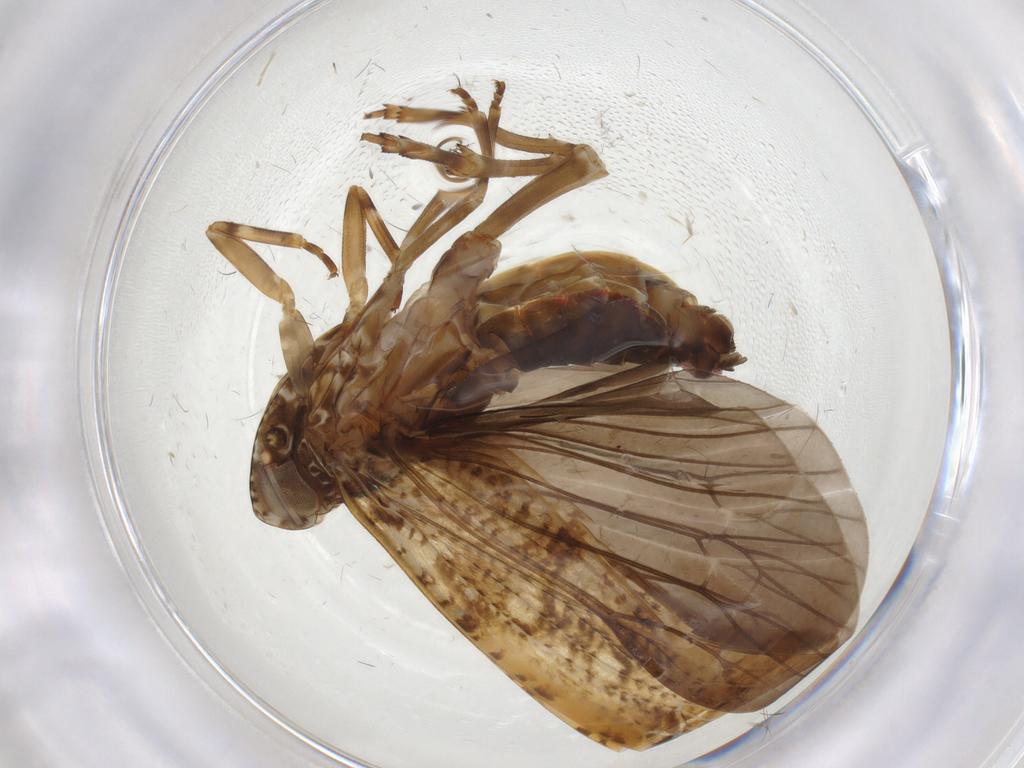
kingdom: Animalia
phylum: Arthropoda
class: Insecta
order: Hemiptera
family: Achilidae
